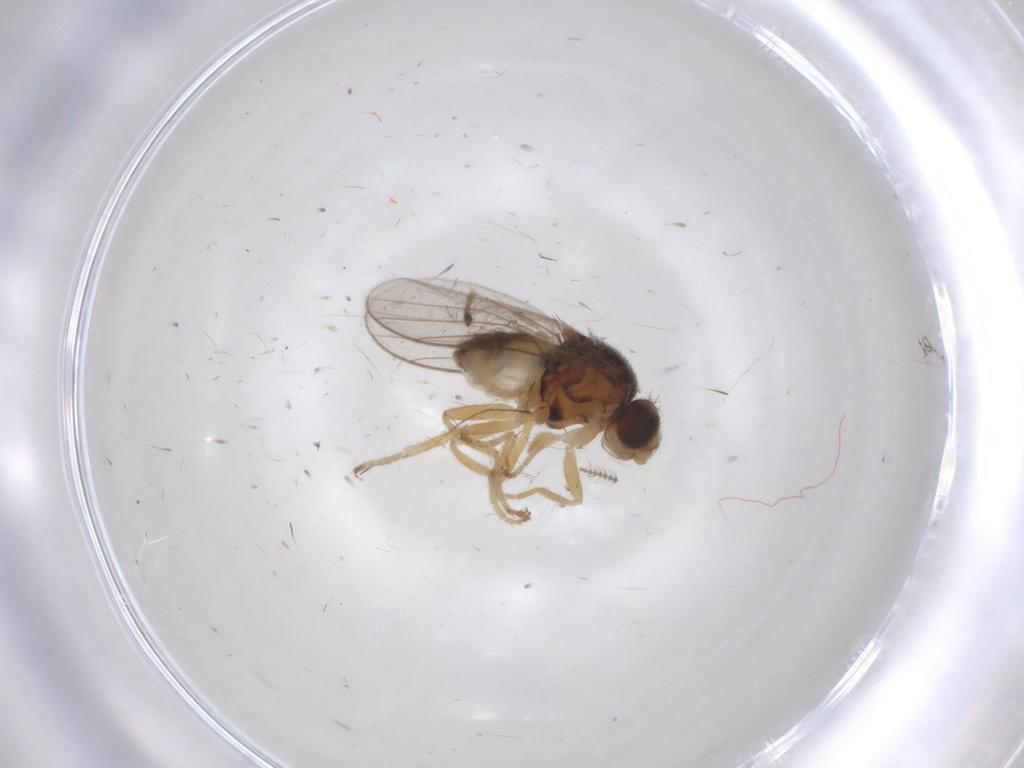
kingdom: Animalia
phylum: Arthropoda
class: Insecta
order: Diptera
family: Chloropidae
